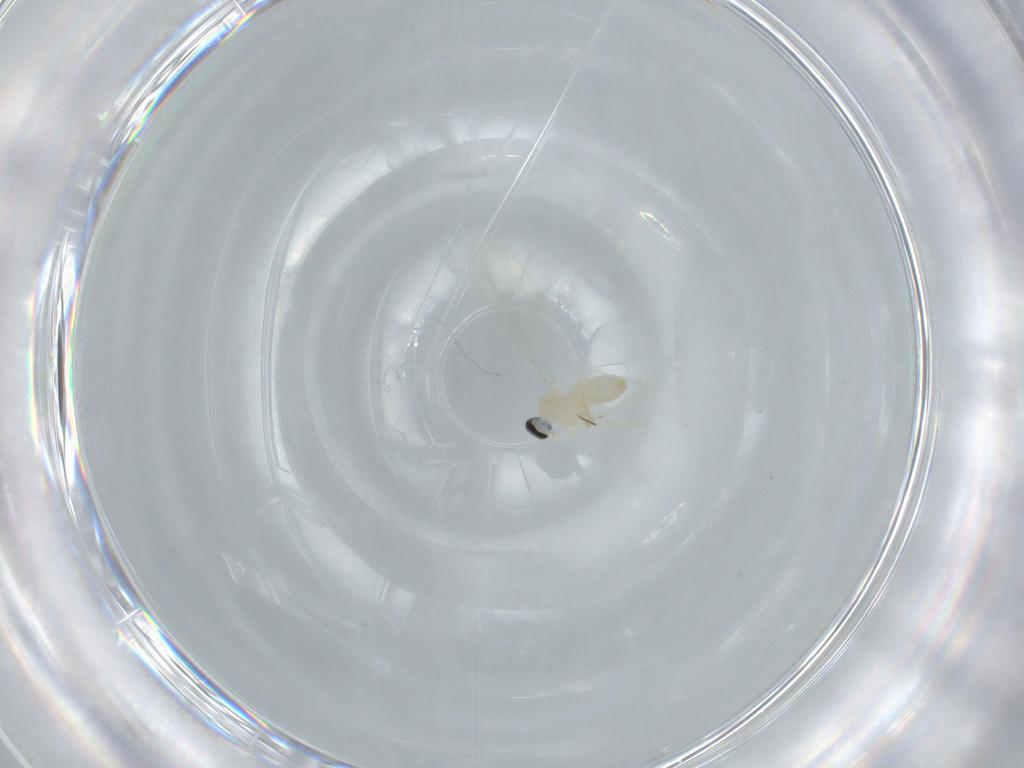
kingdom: Animalia
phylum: Arthropoda
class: Insecta
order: Diptera
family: Cecidomyiidae
